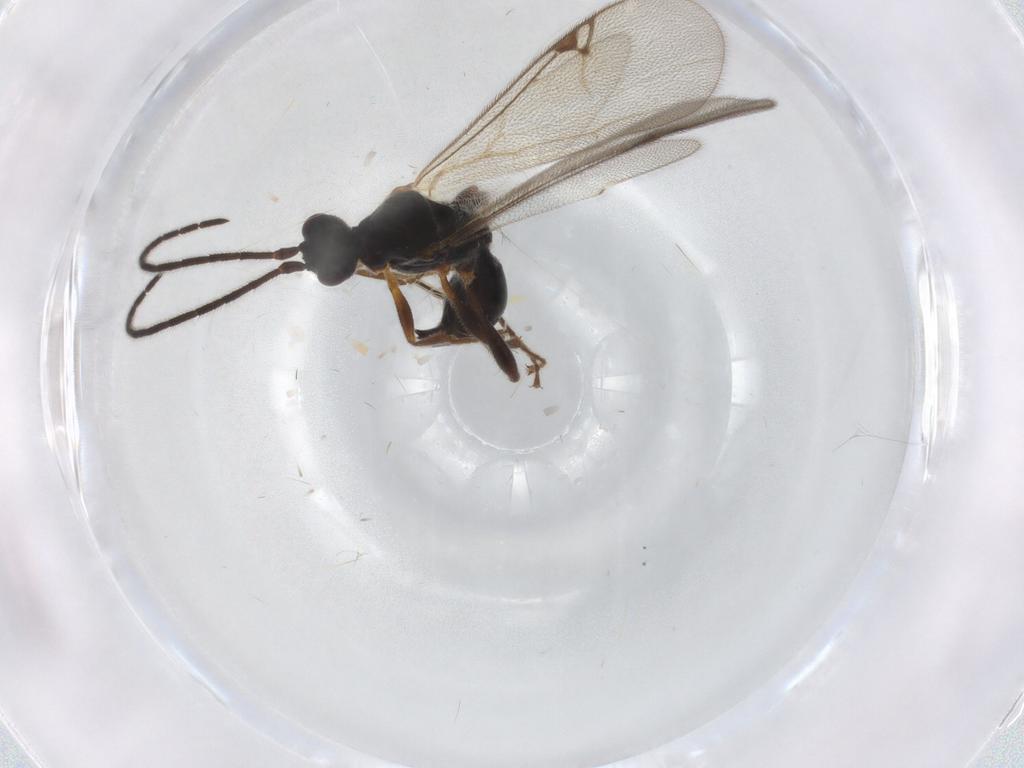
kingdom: Animalia
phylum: Arthropoda
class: Insecta
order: Hymenoptera
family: Proctotrupidae
